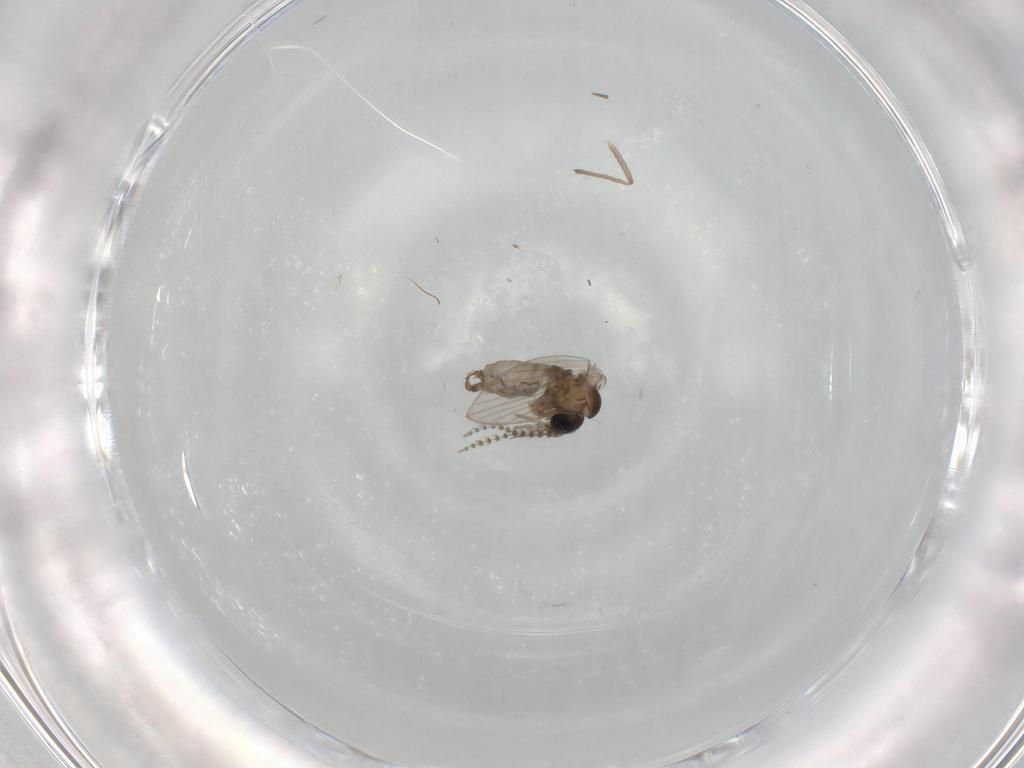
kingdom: Animalia
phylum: Arthropoda
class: Insecta
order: Diptera
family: Psychodidae
